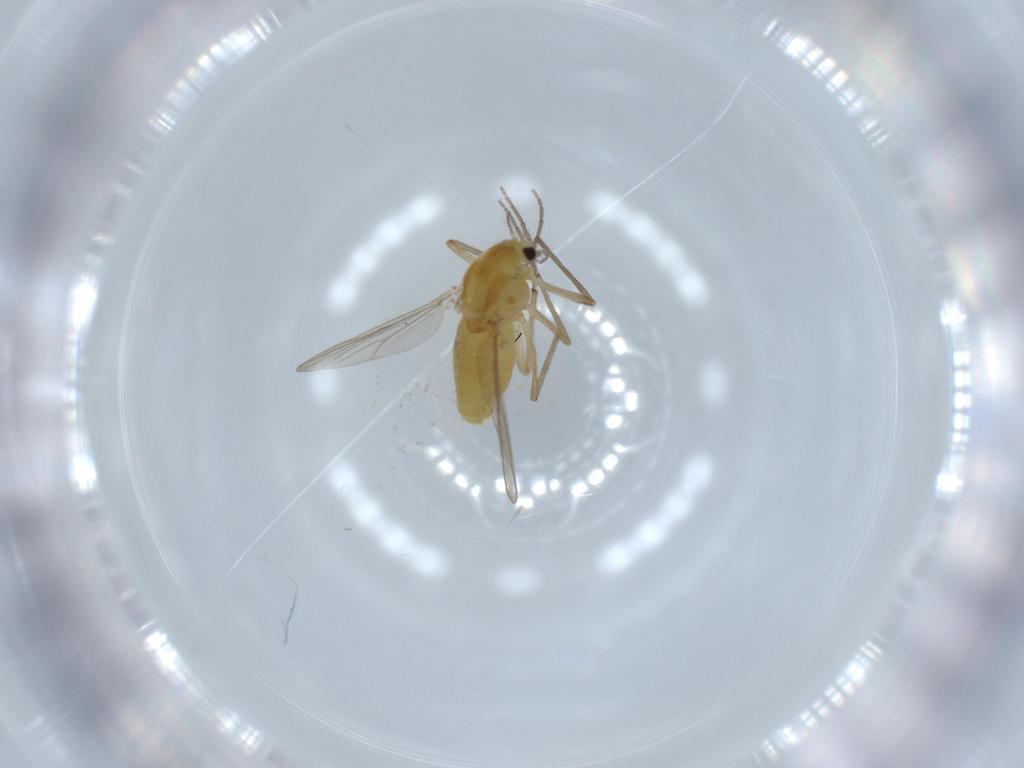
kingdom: Animalia
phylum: Arthropoda
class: Insecta
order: Diptera
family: Chironomidae
